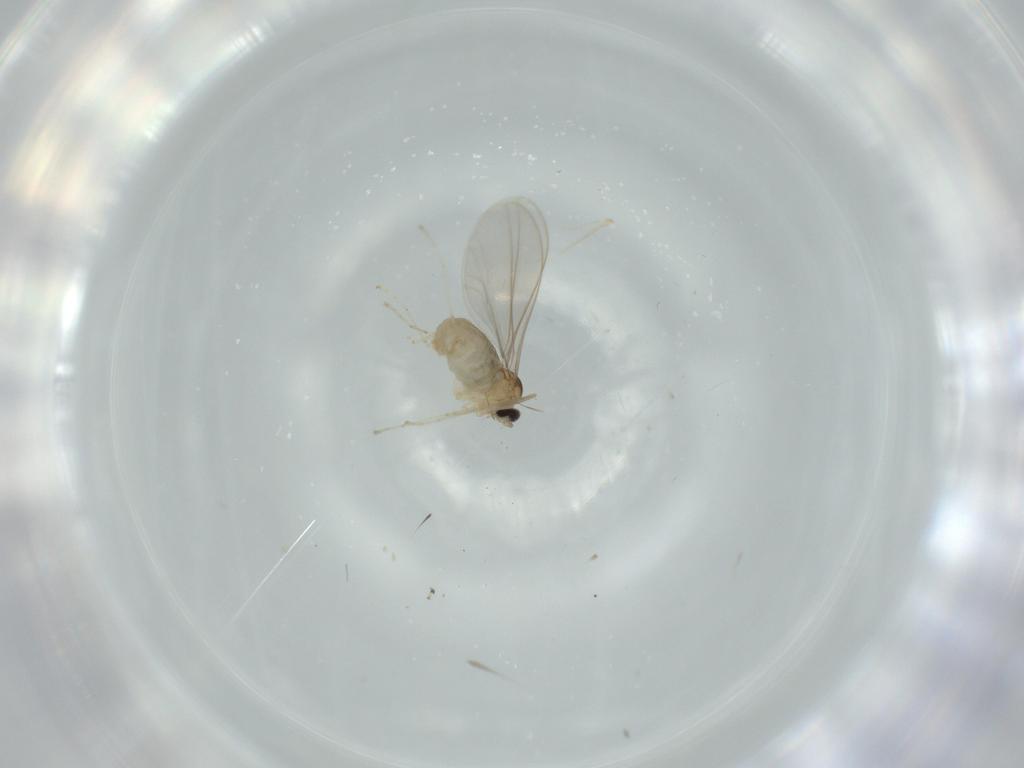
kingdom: Animalia
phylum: Arthropoda
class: Insecta
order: Diptera
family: Cecidomyiidae
